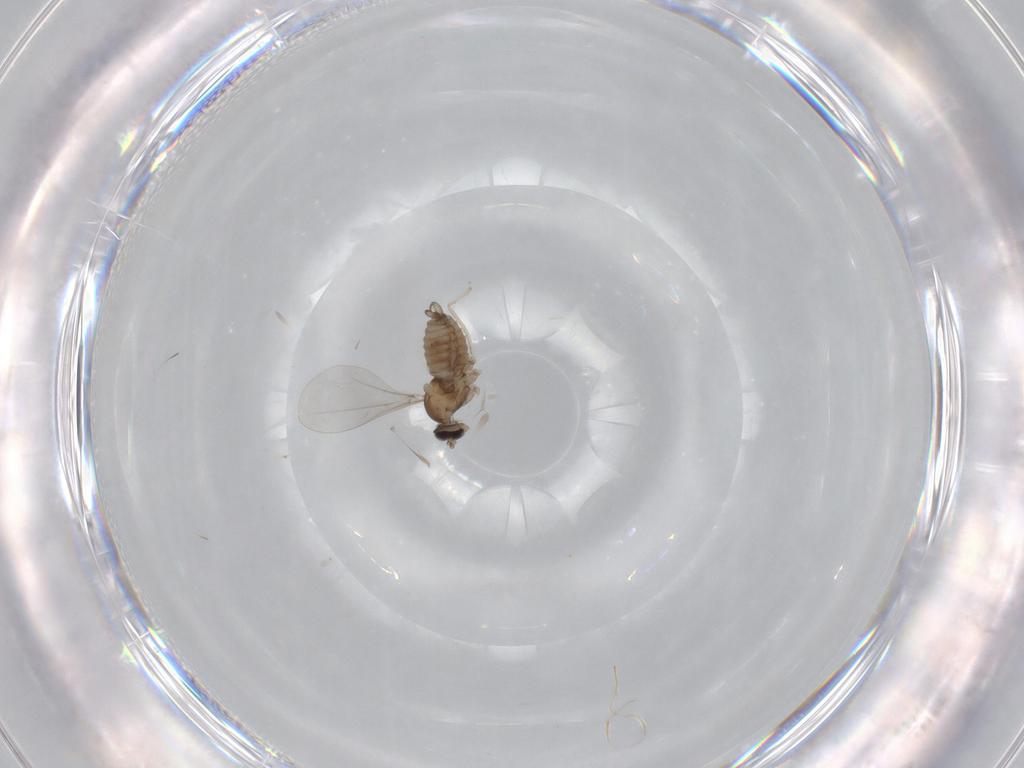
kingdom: Animalia
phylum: Arthropoda
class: Insecta
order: Diptera
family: Cecidomyiidae
